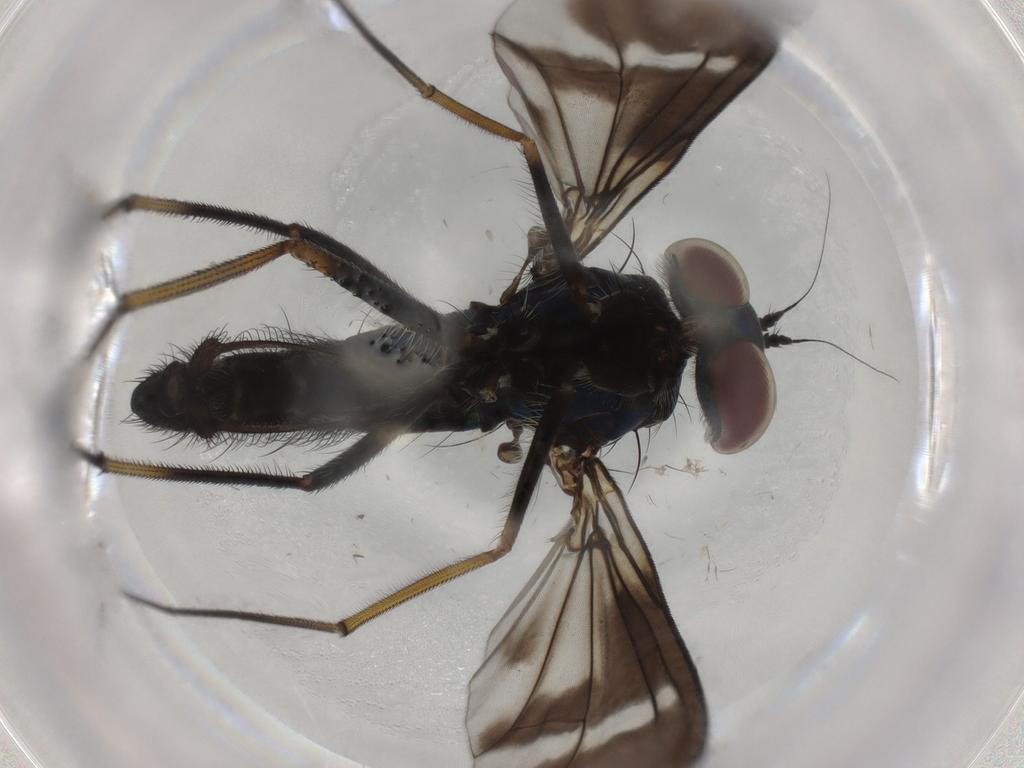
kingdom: Animalia
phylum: Arthropoda
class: Insecta
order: Diptera
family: Dolichopodidae
